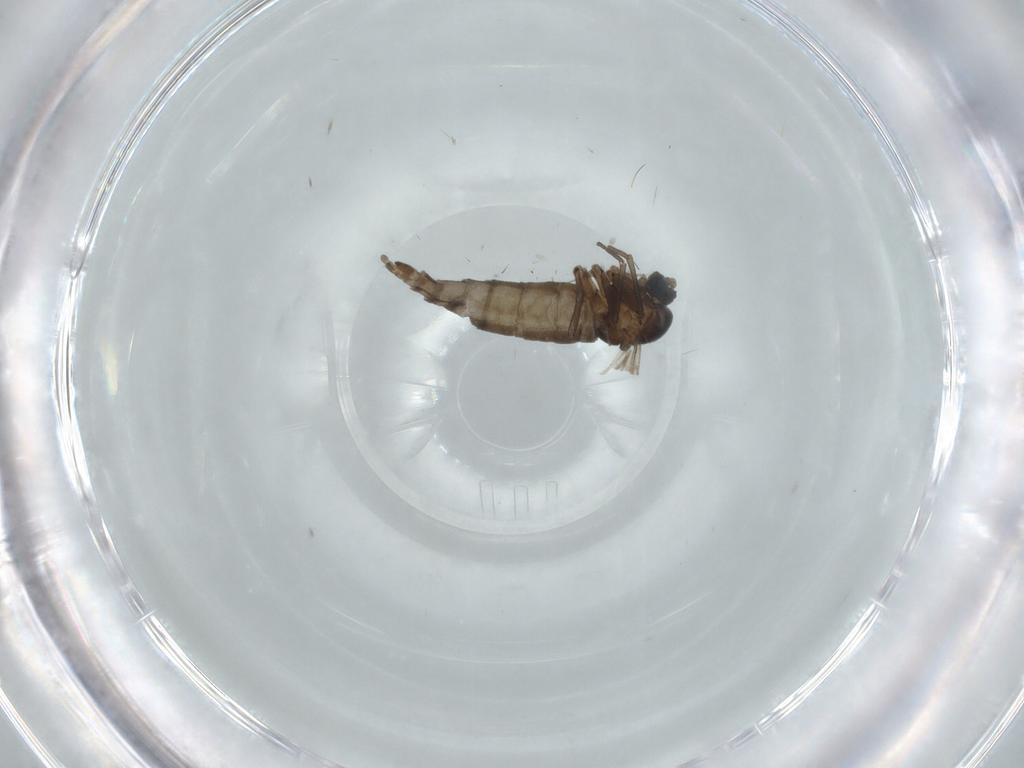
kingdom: Animalia
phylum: Arthropoda
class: Insecta
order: Diptera
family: Sciaridae
